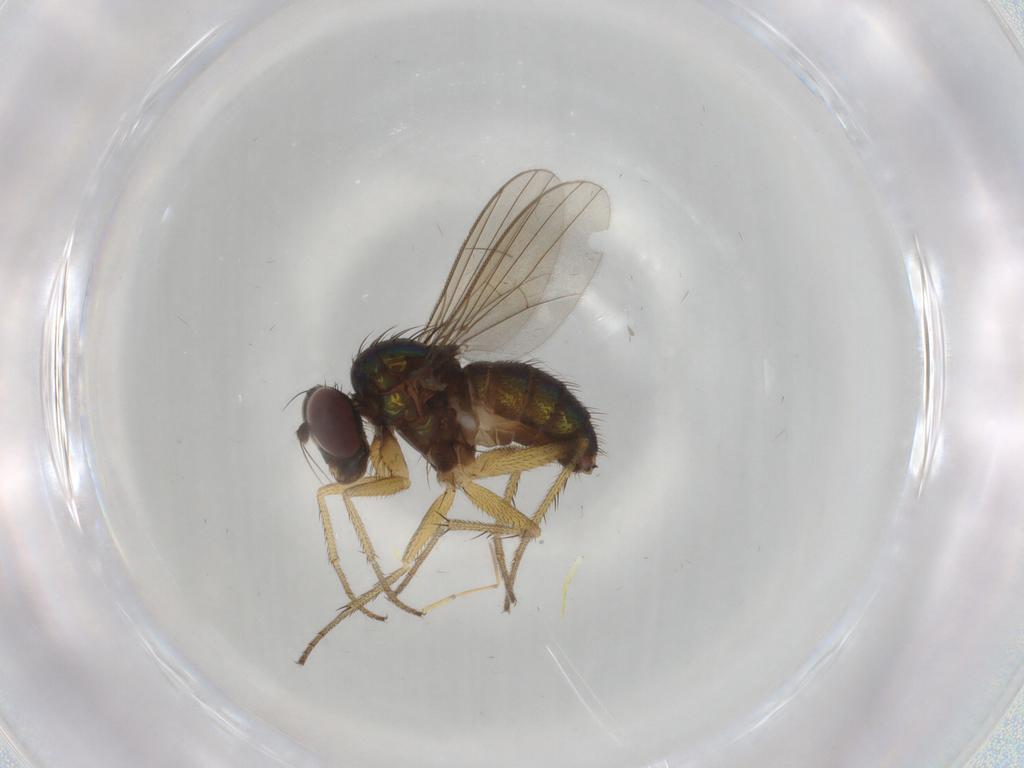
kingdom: Animalia
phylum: Arthropoda
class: Insecta
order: Diptera
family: Dolichopodidae
